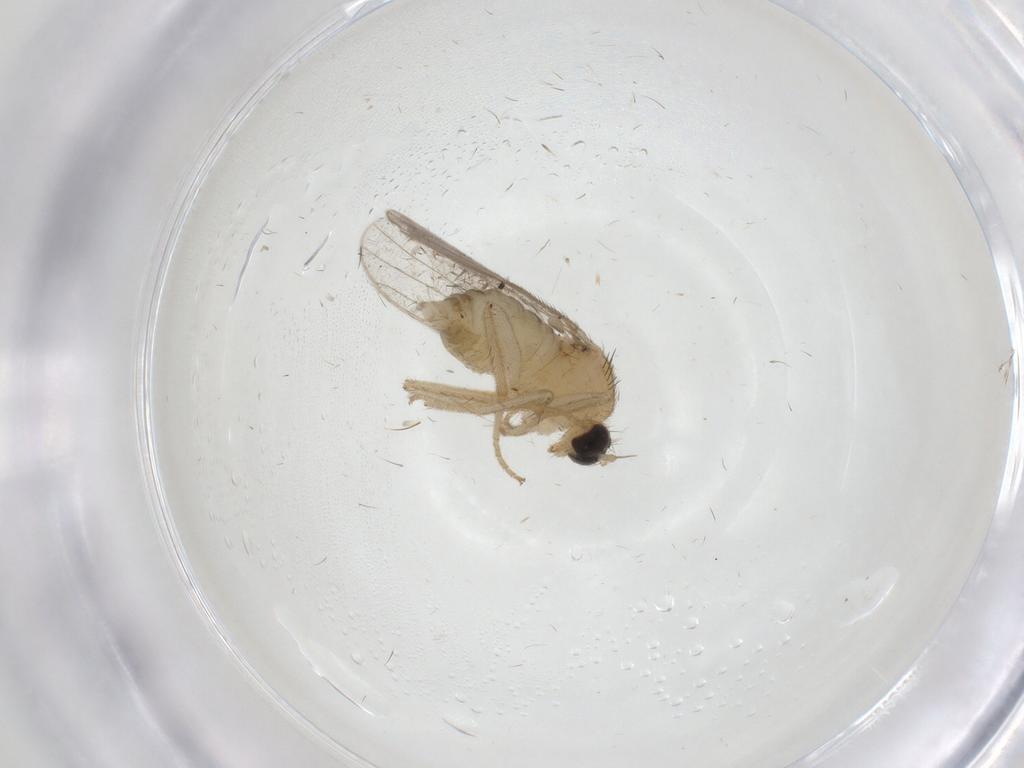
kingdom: Animalia
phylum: Arthropoda
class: Insecta
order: Diptera
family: Hybotidae
